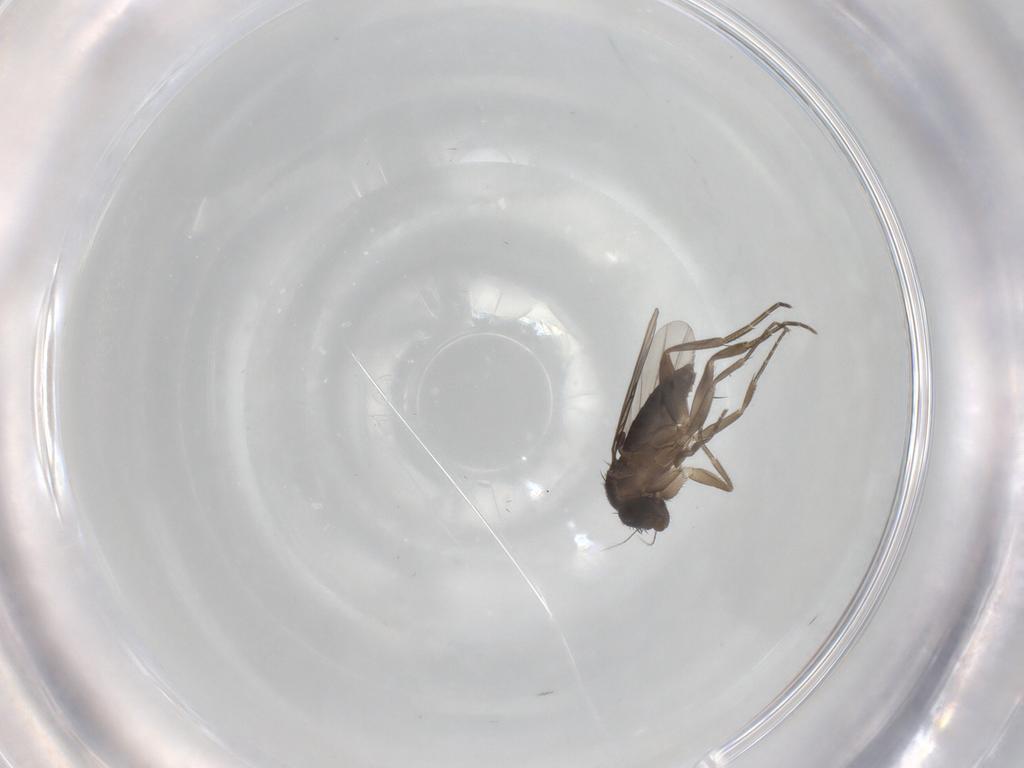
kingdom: Animalia
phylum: Arthropoda
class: Insecta
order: Diptera
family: Phoridae
